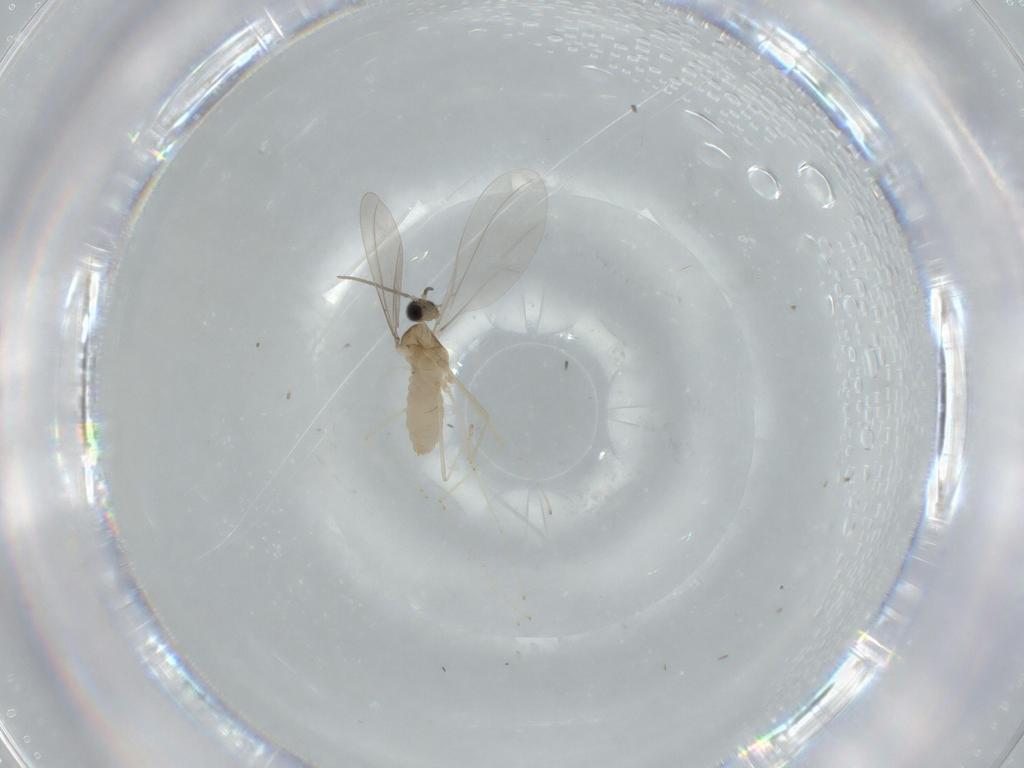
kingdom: Animalia
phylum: Arthropoda
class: Insecta
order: Diptera
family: Cecidomyiidae
